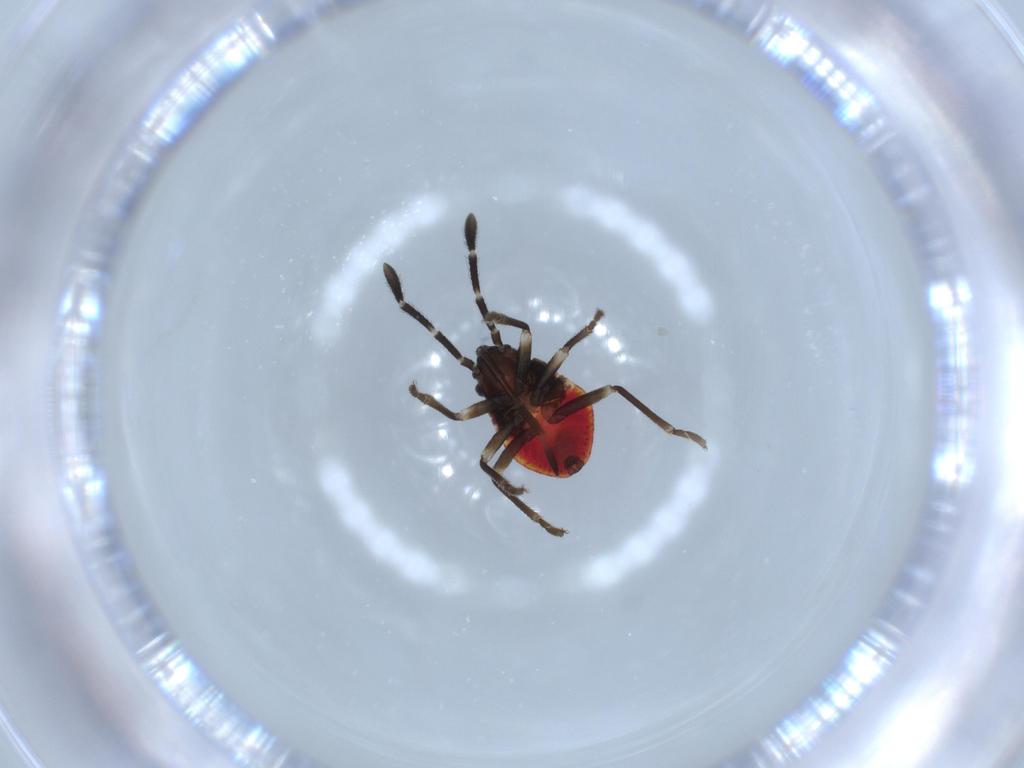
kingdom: Animalia
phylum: Arthropoda
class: Insecta
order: Hemiptera
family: Lygaeidae
